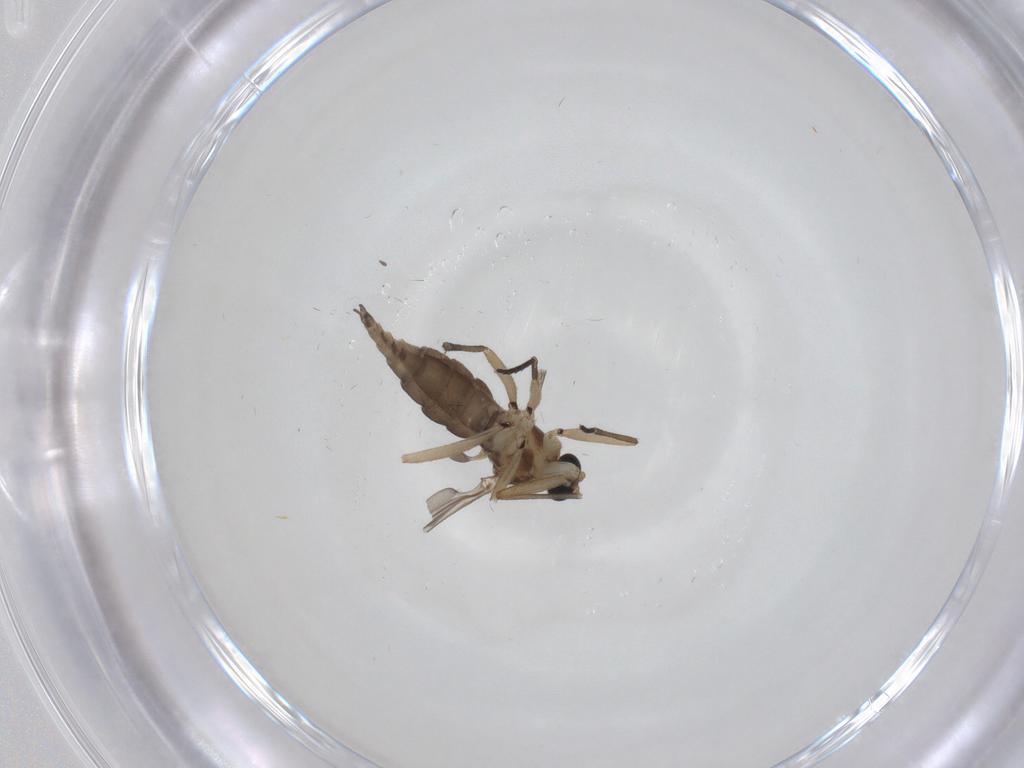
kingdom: Animalia
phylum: Arthropoda
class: Insecta
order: Diptera
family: Sciaridae
